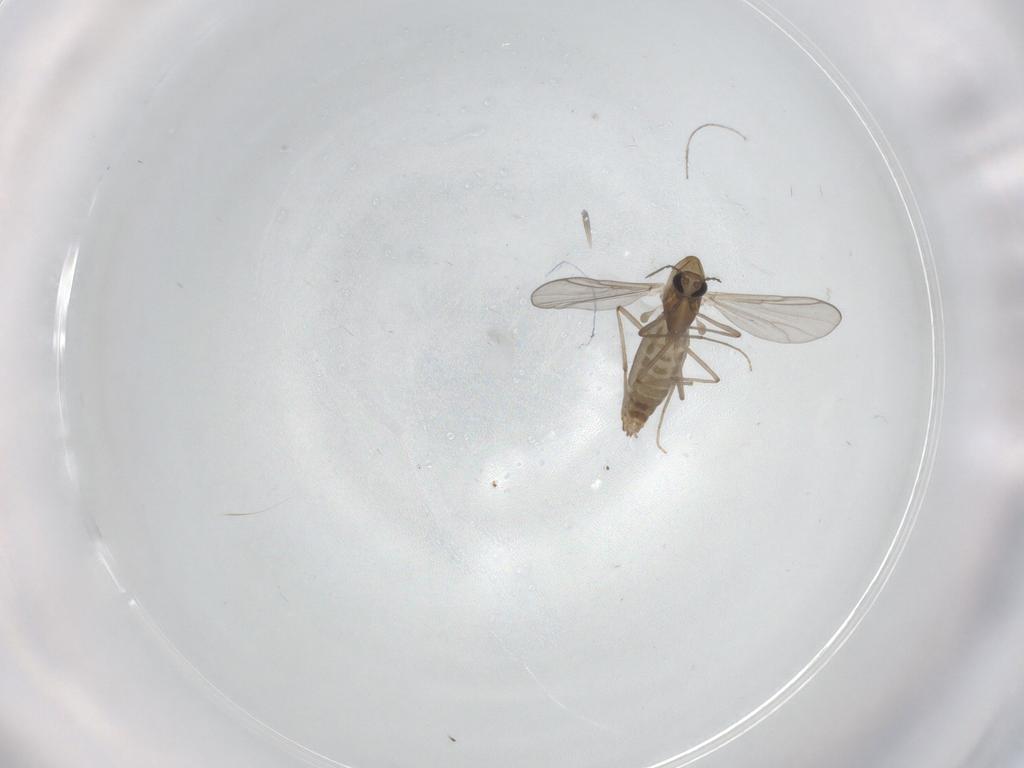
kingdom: Animalia
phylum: Arthropoda
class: Insecta
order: Diptera
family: Chironomidae
